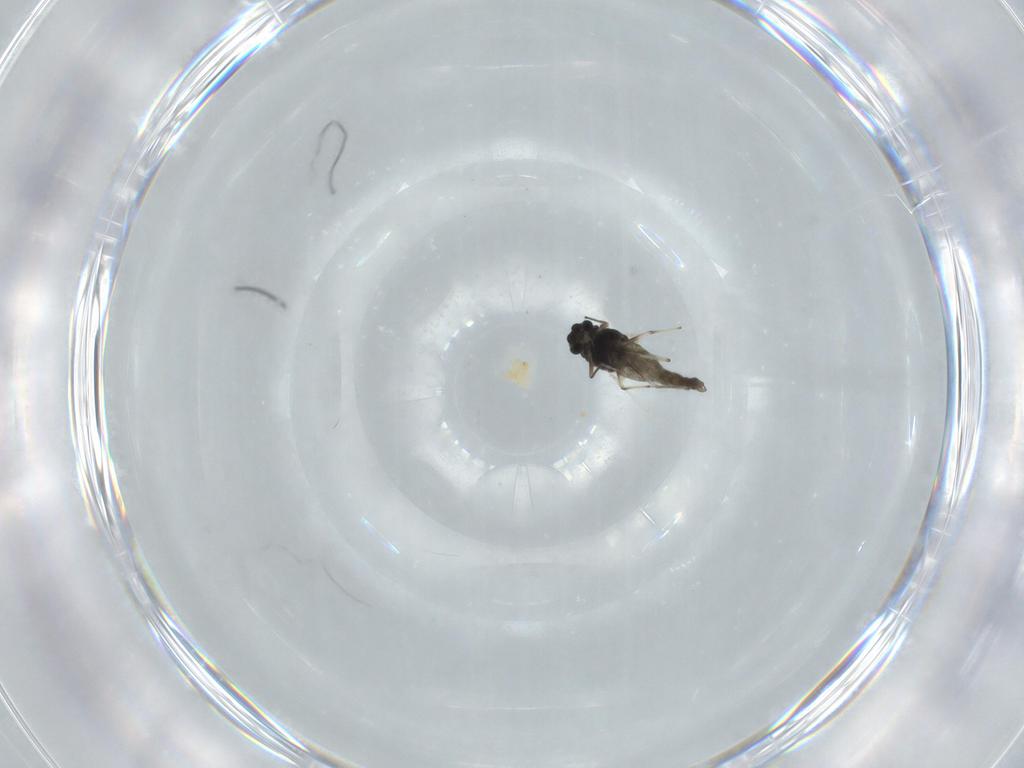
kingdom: Animalia
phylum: Arthropoda
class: Insecta
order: Diptera
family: Chironomidae
